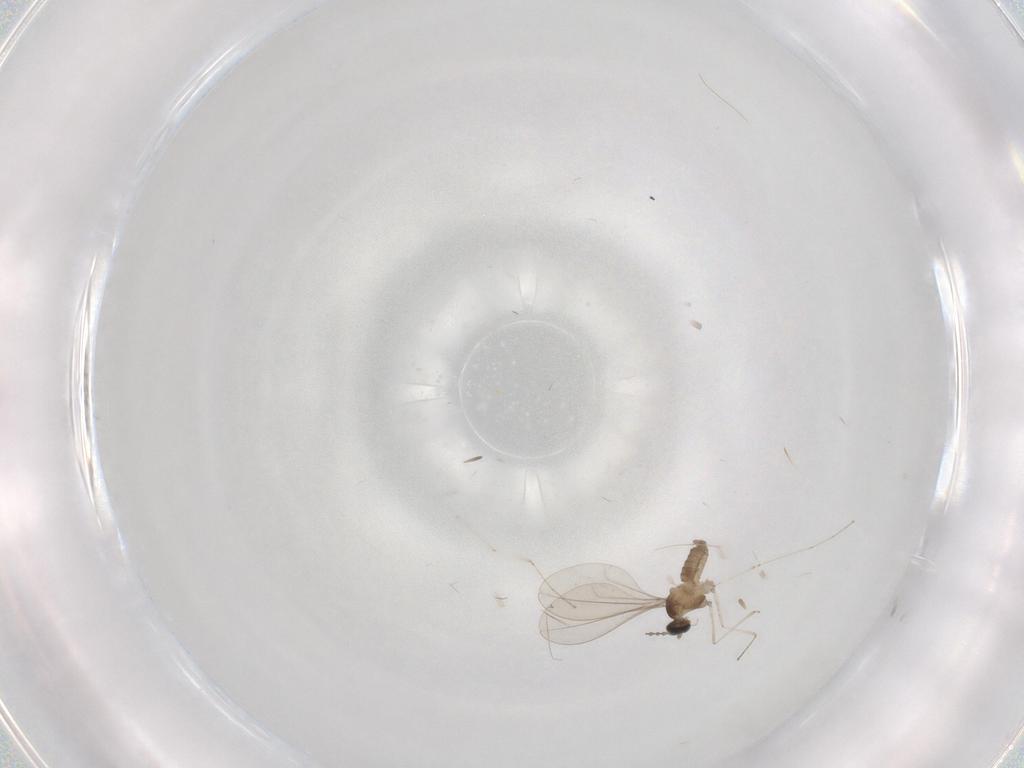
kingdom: Animalia
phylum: Arthropoda
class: Insecta
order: Diptera
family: Cecidomyiidae
